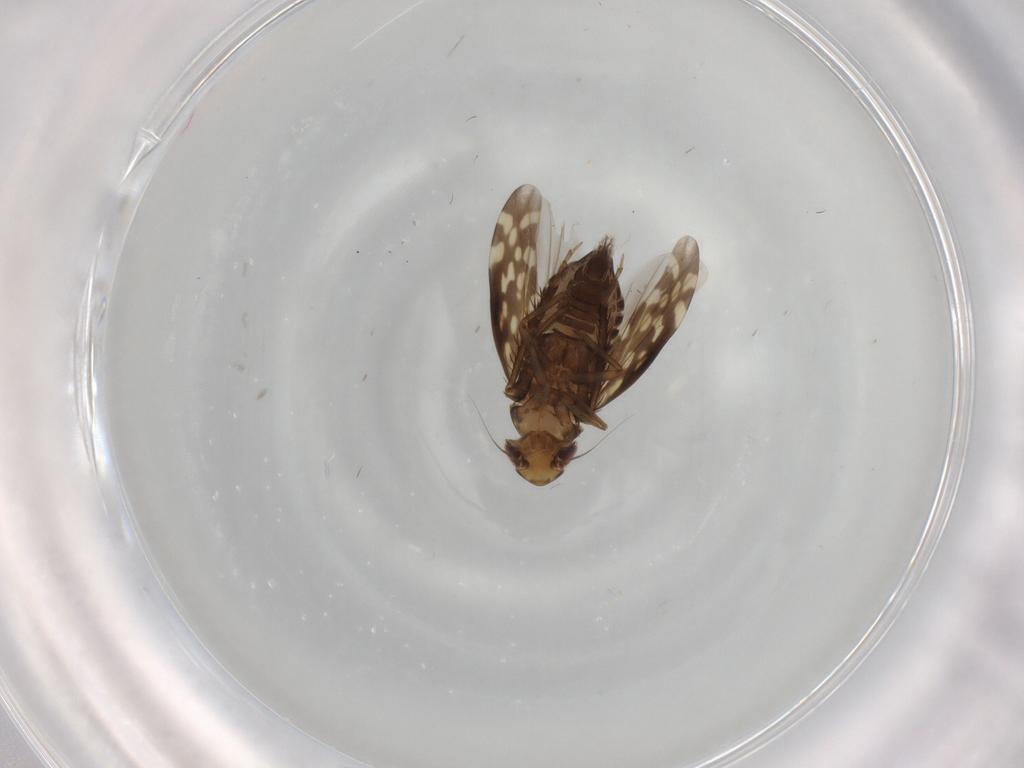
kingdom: Animalia
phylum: Arthropoda
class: Insecta
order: Hemiptera
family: Cicadellidae
